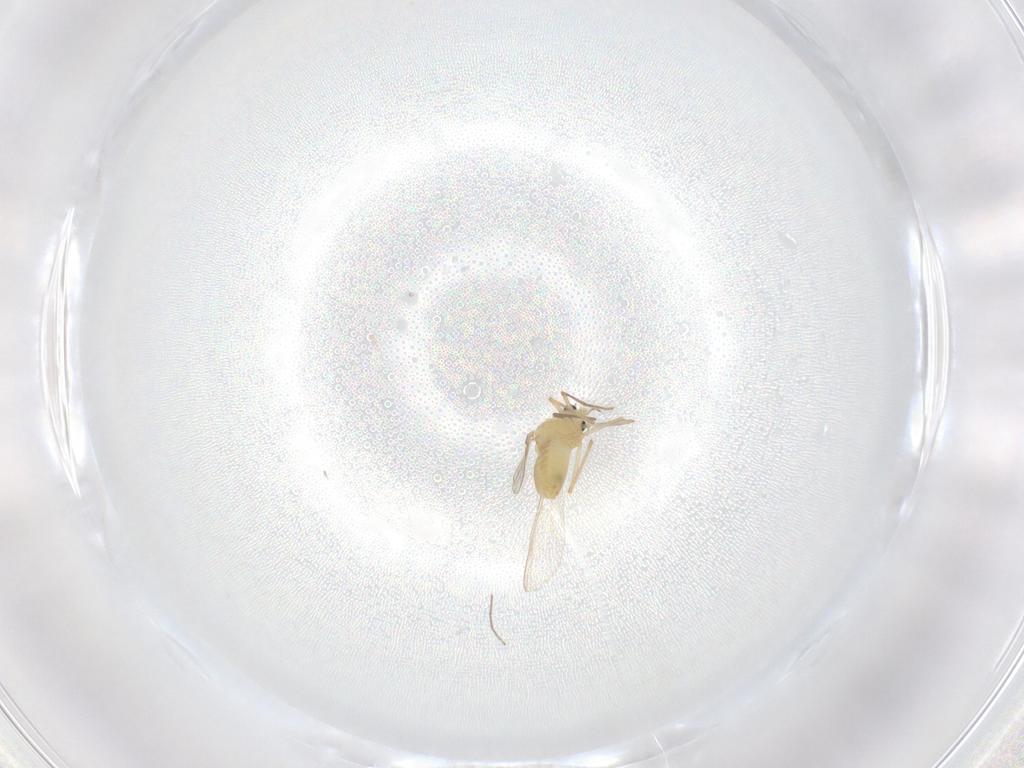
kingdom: Animalia
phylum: Arthropoda
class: Insecta
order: Diptera
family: Chironomidae
